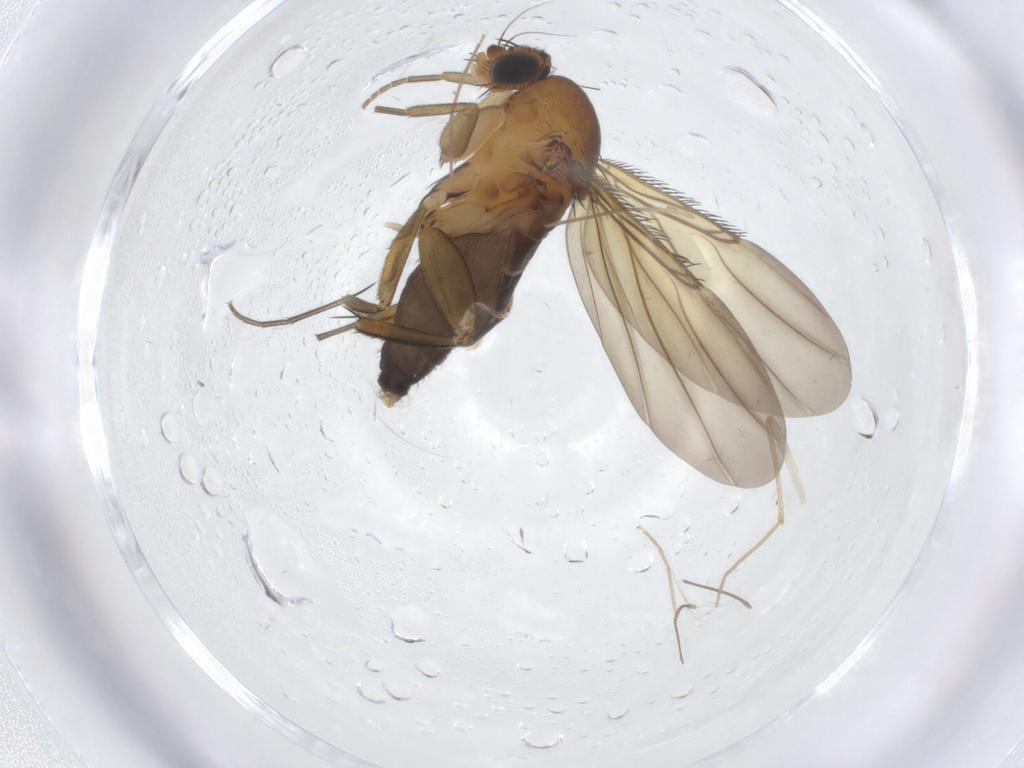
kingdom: Animalia
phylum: Arthropoda
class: Insecta
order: Diptera
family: Phoridae
